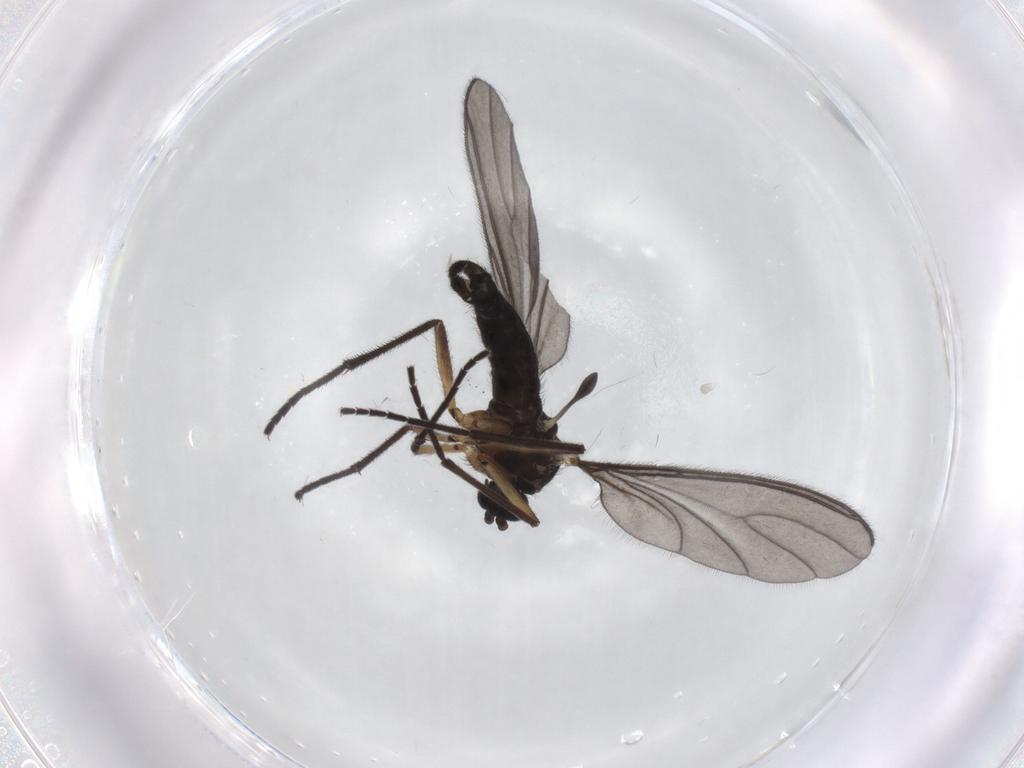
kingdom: Animalia
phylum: Arthropoda
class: Insecta
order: Diptera
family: Sciaridae
